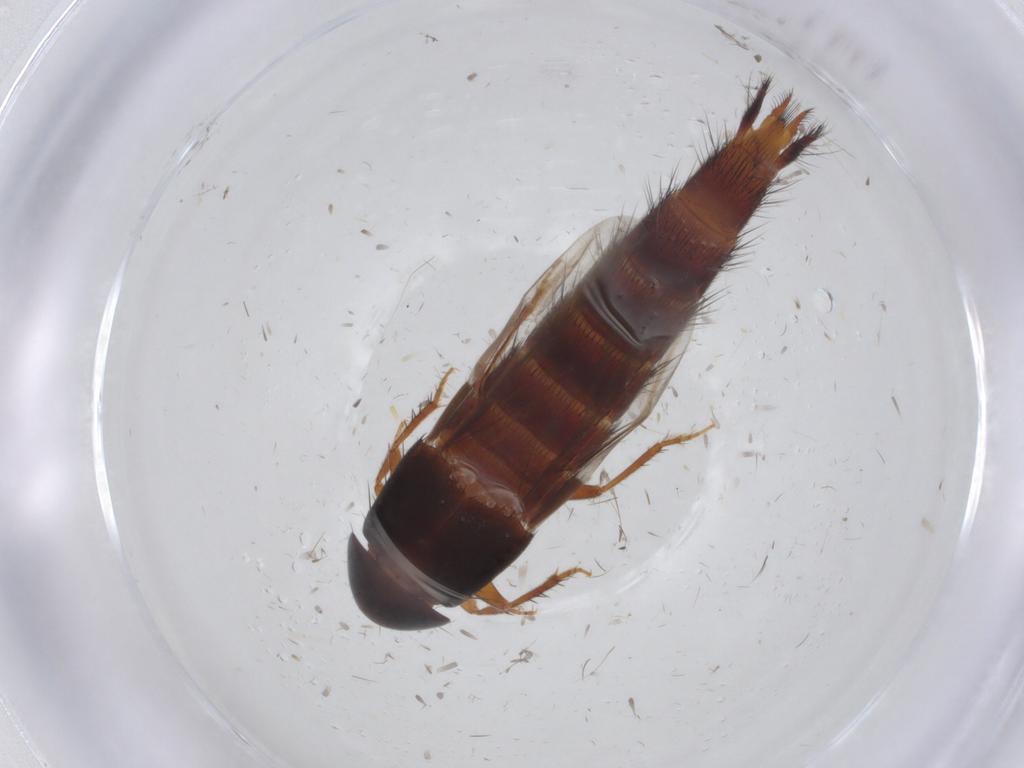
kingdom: Animalia
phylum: Arthropoda
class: Insecta
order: Coleoptera
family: Staphylinidae
